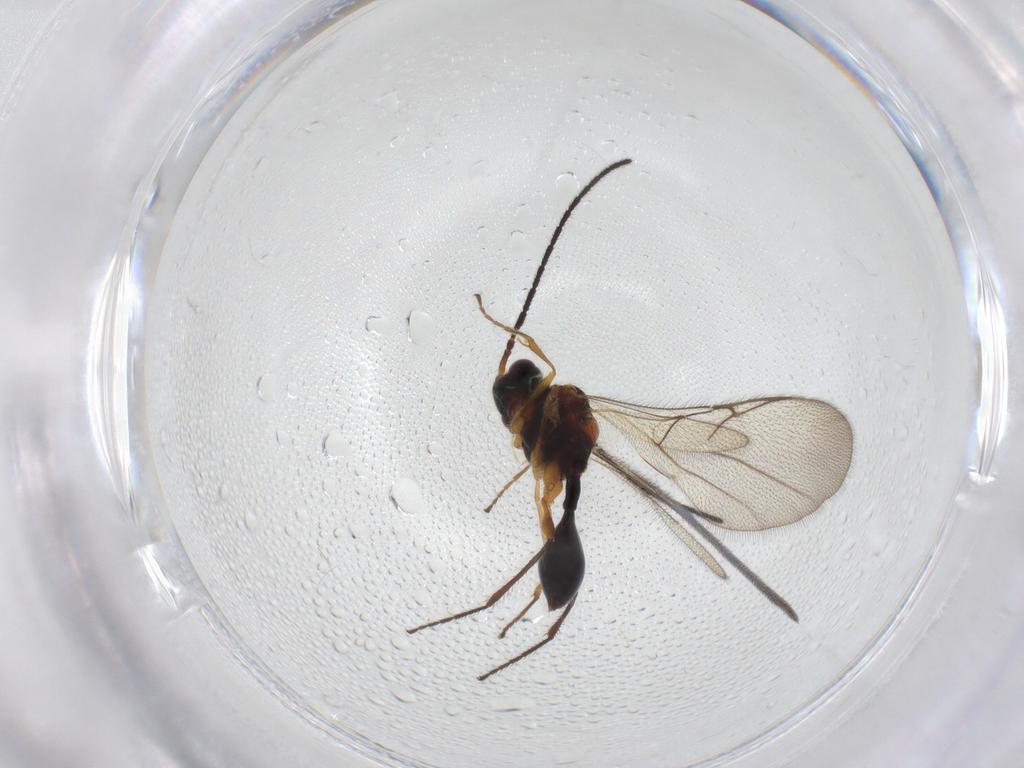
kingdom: Animalia
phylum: Arthropoda
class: Insecta
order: Hymenoptera
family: Diapriidae
